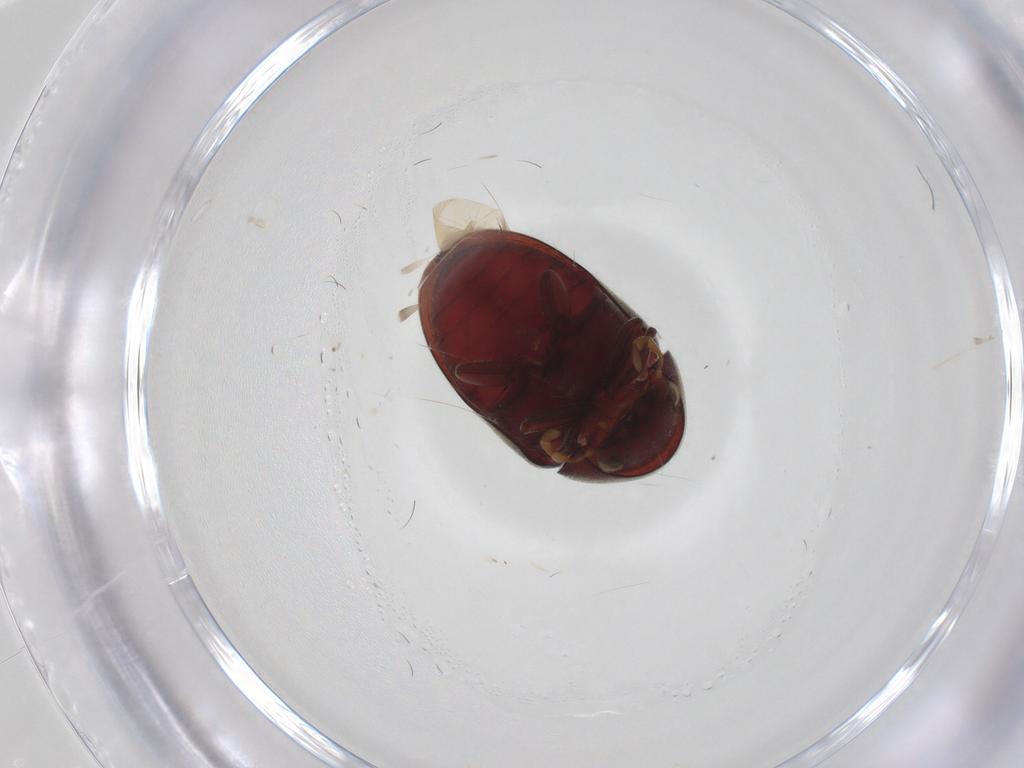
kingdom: Animalia
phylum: Arthropoda
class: Insecta
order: Coleoptera
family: Ptinidae
